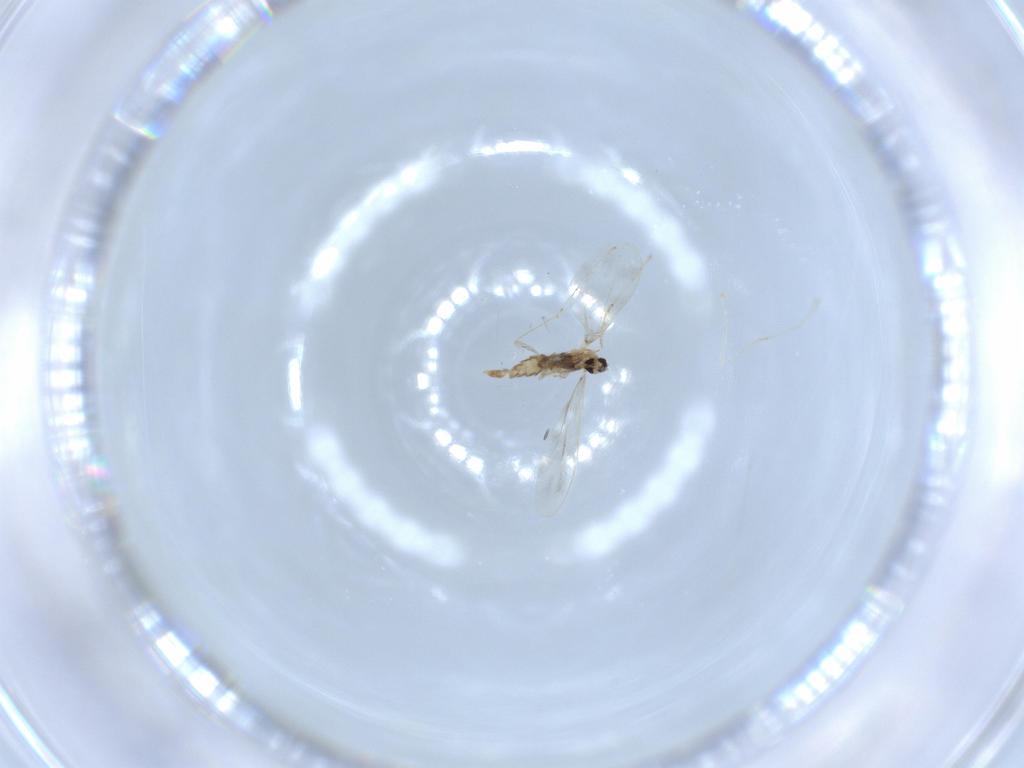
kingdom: Animalia
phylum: Arthropoda
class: Insecta
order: Diptera
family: Cecidomyiidae
